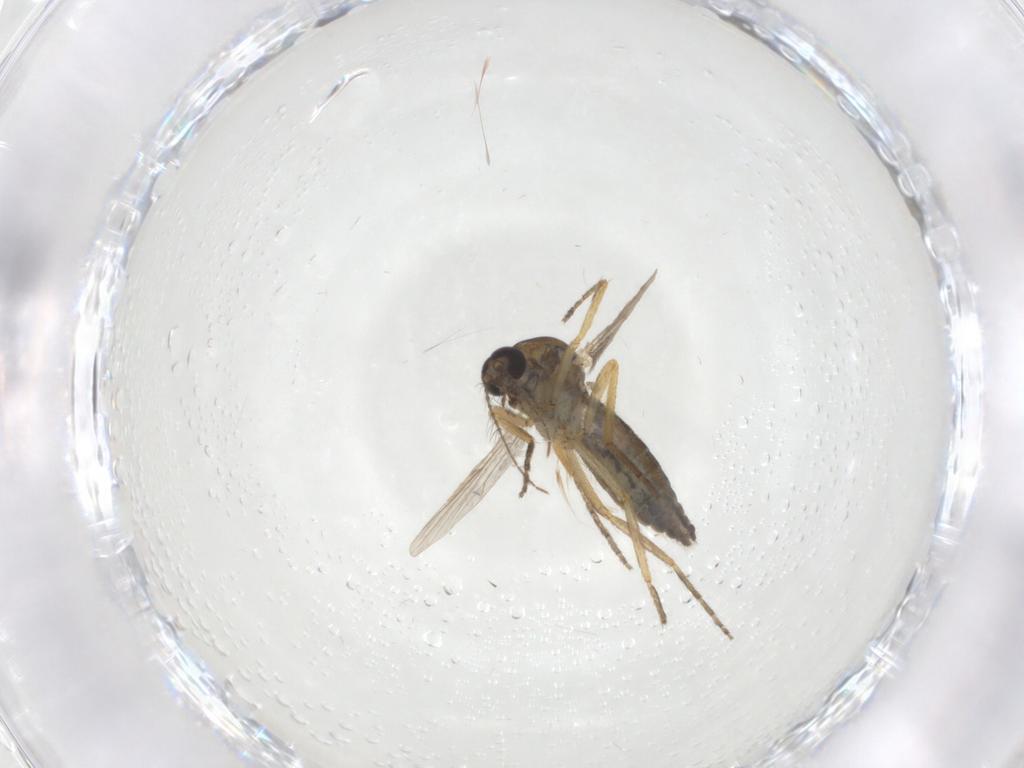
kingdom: Animalia
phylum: Arthropoda
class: Insecta
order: Diptera
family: Ceratopogonidae
